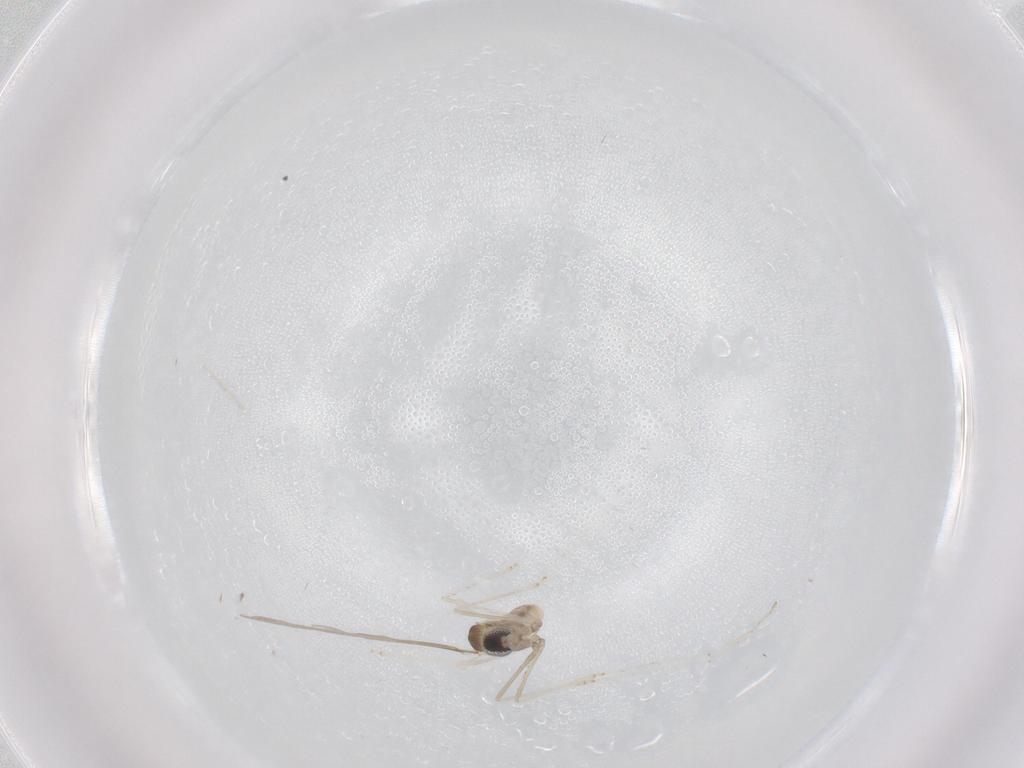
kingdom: Animalia
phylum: Arthropoda
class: Insecta
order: Diptera
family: Cecidomyiidae
